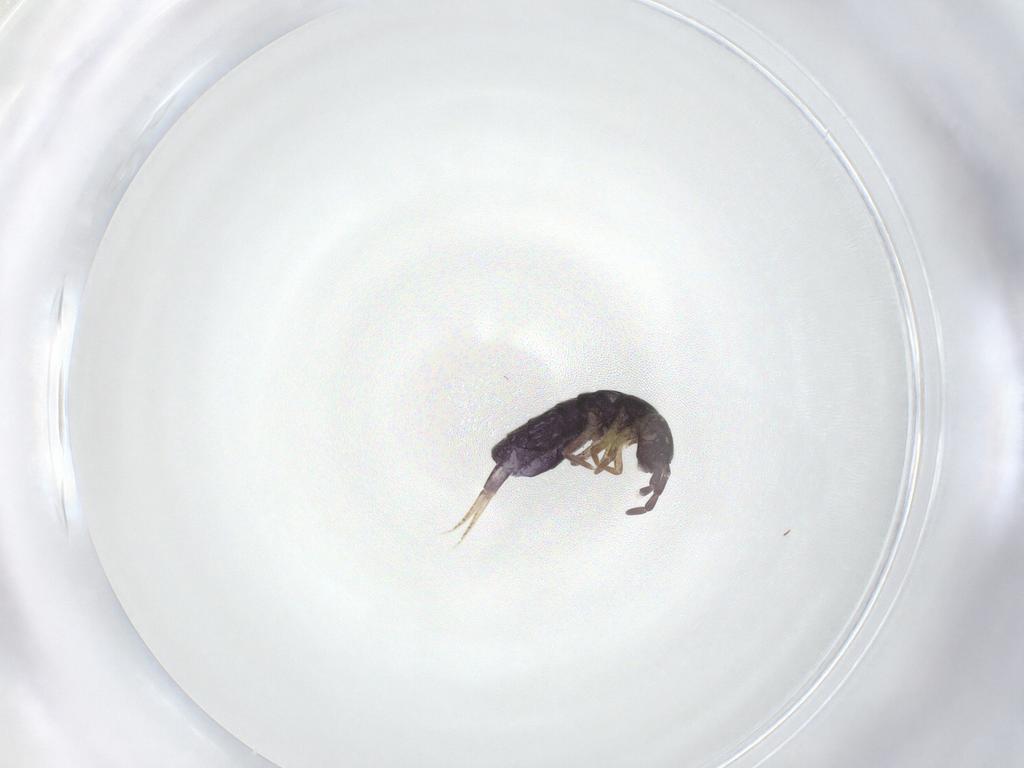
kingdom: Animalia
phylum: Arthropoda
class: Collembola
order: Entomobryomorpha
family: Isotomidae
